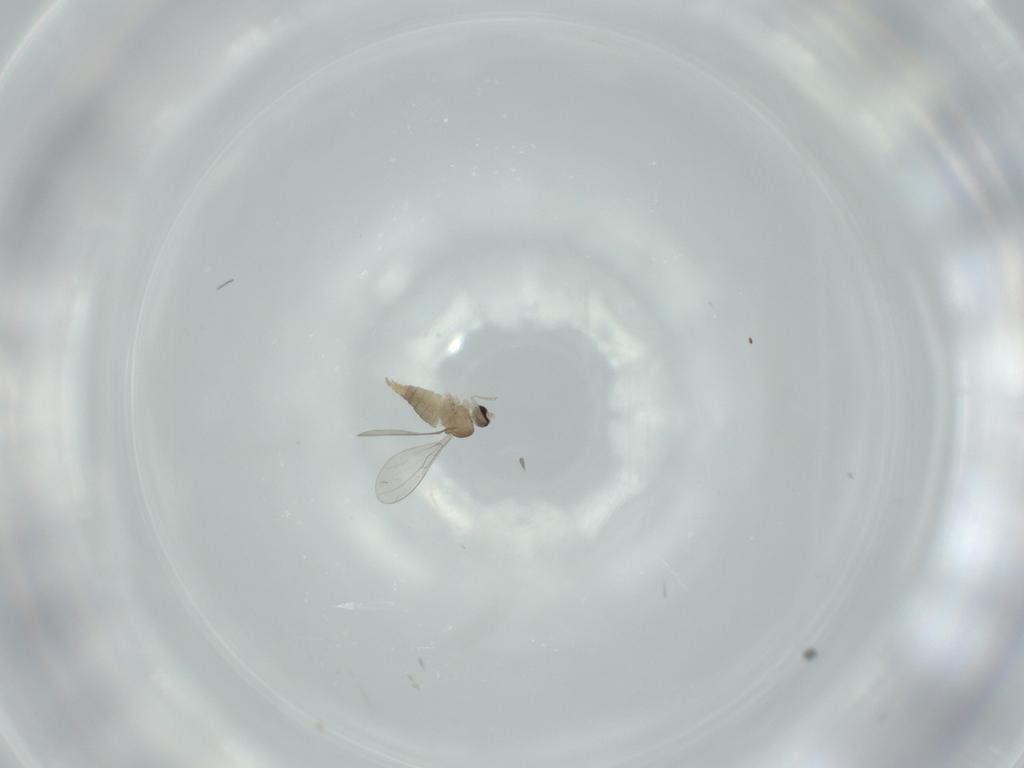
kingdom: Animalia
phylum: Arthropoda
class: Insecta
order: Diptera
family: Cecidomyiidae
